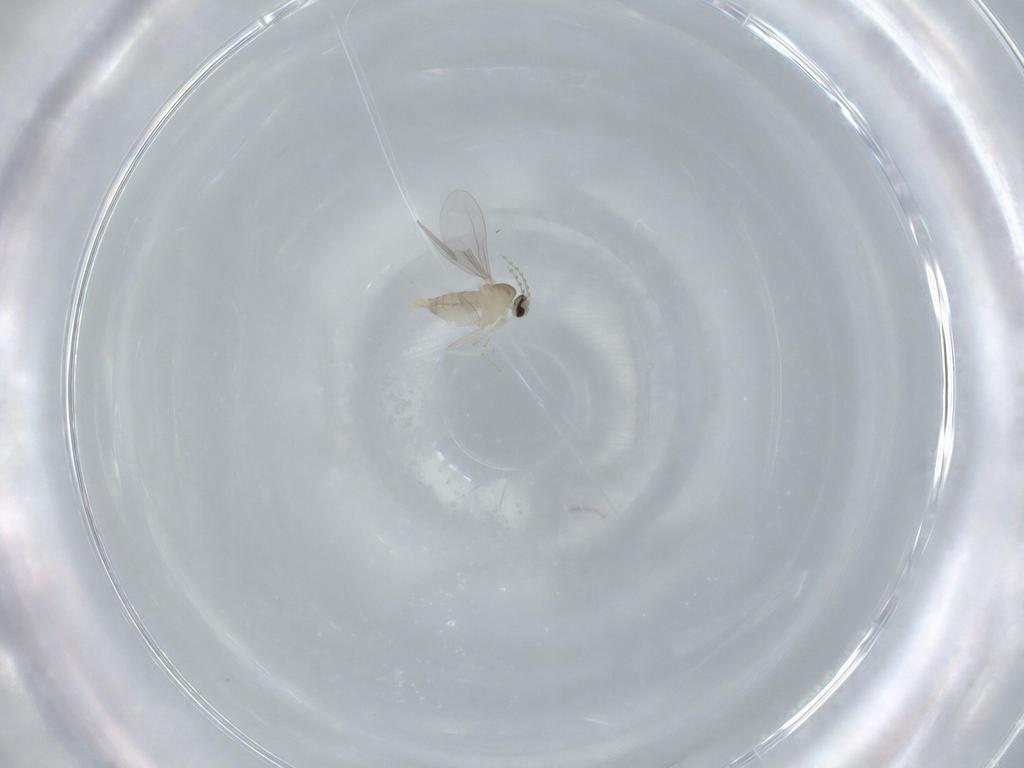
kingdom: Animalia
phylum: Arthropoda
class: Insecta
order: Diptera
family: Cecidomyiidae
